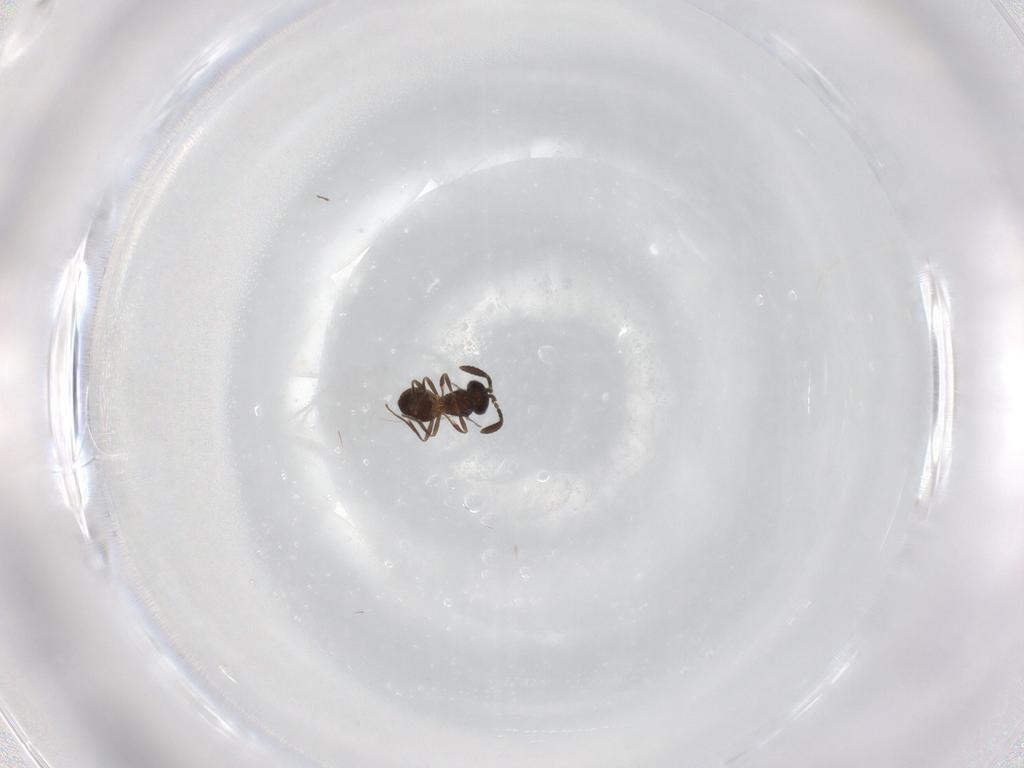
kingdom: Animalia
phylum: Arthropoda
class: Insecta
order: Hymenoptera
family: Scelionidae
